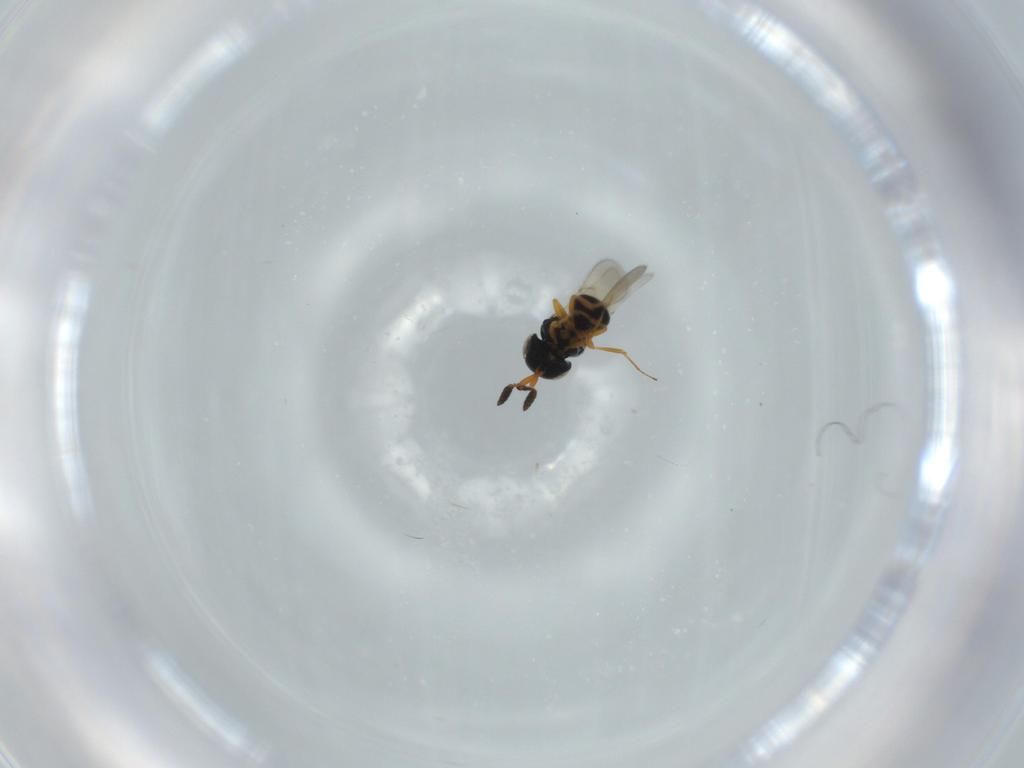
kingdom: Animalia
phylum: Arthropoda
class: Insecta
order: Hymenoptera
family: Scelionidae
